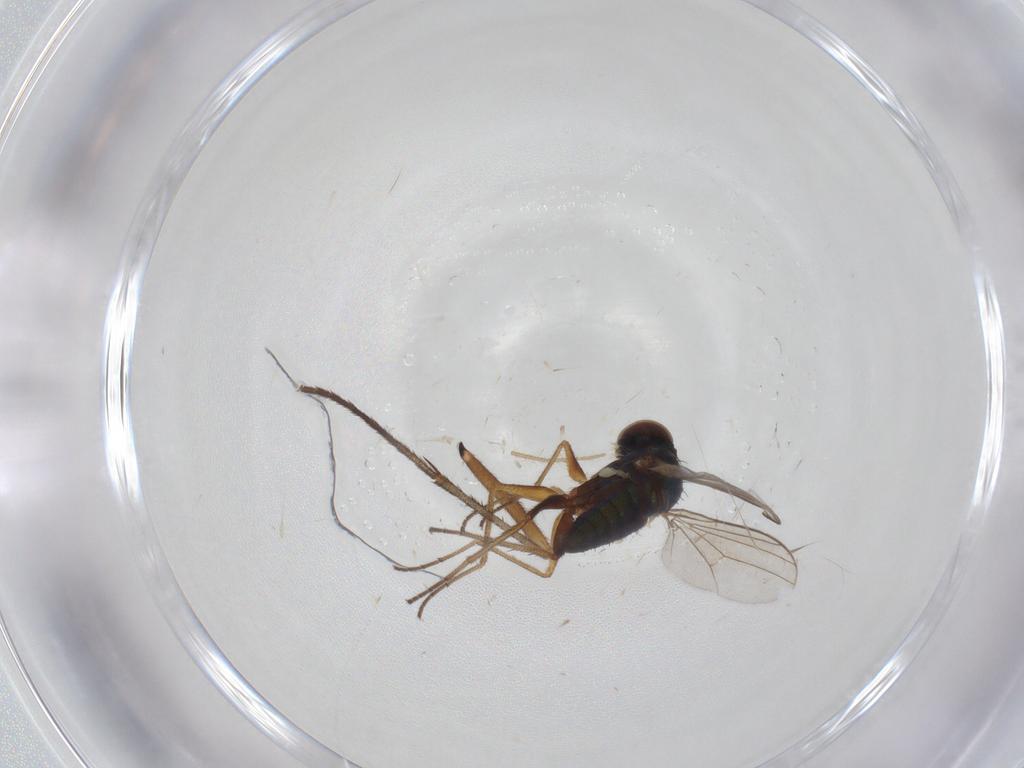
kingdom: Animalia
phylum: Arthropoda
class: Insecta
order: Diptera
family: Sciaridae
